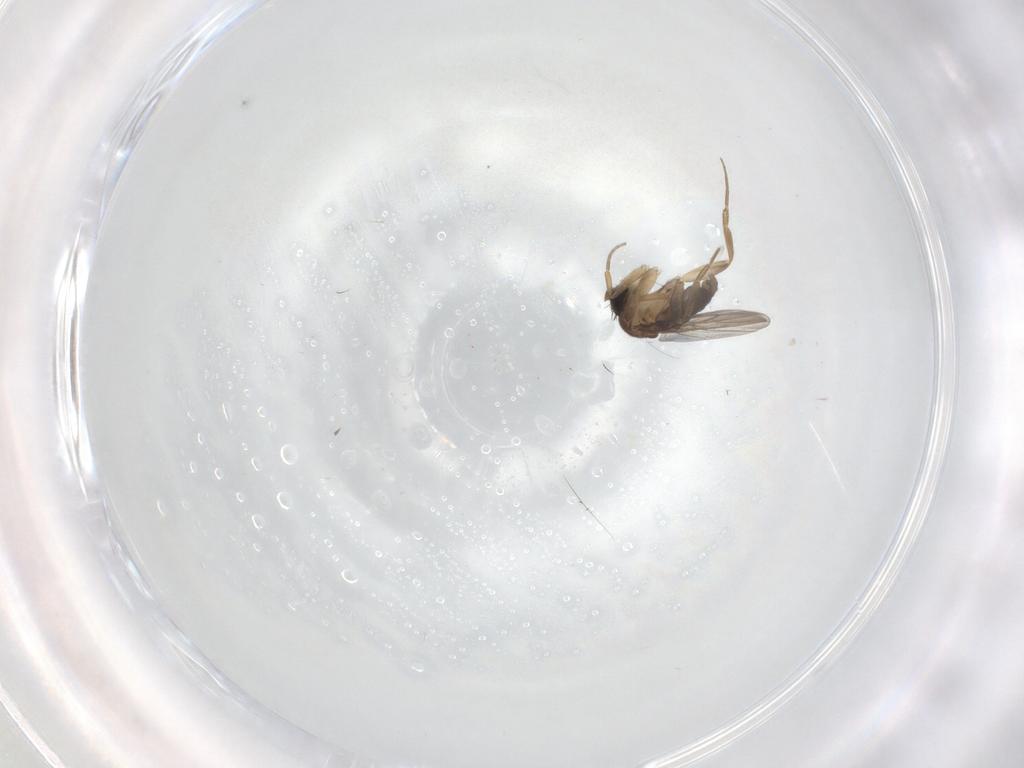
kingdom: Animalia
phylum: Arthropoda
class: Insecta
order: Diptera
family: Phoridae
